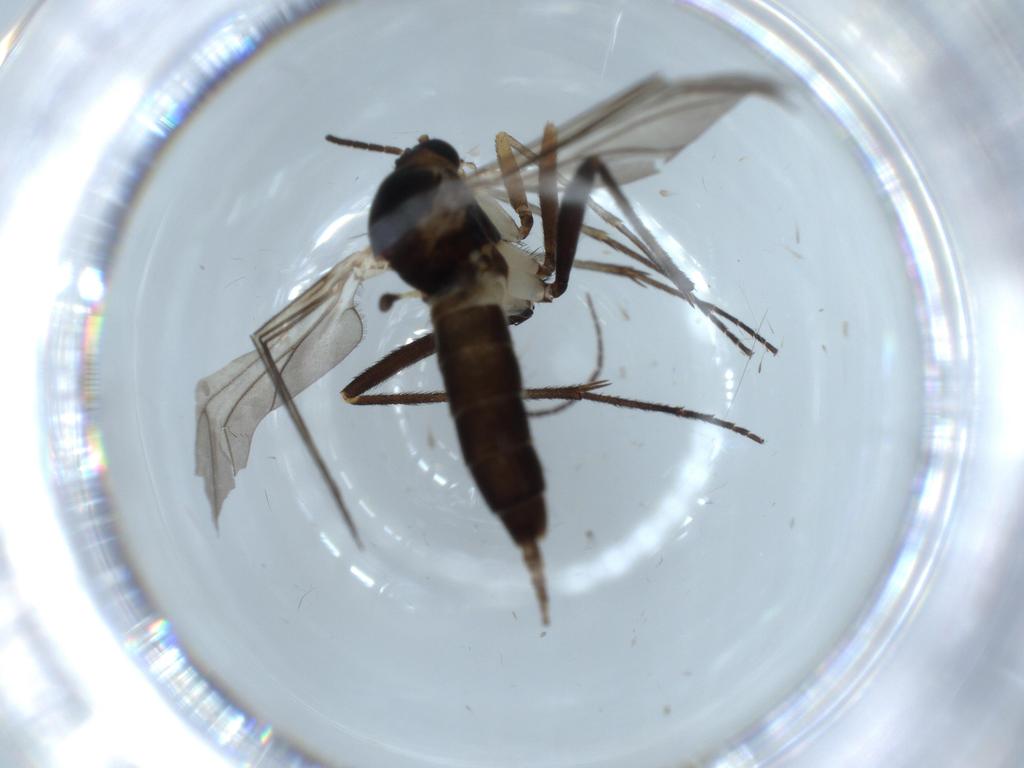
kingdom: Animalia
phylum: Arthropoda
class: Insecta
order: Diptera
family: Sciaridae
